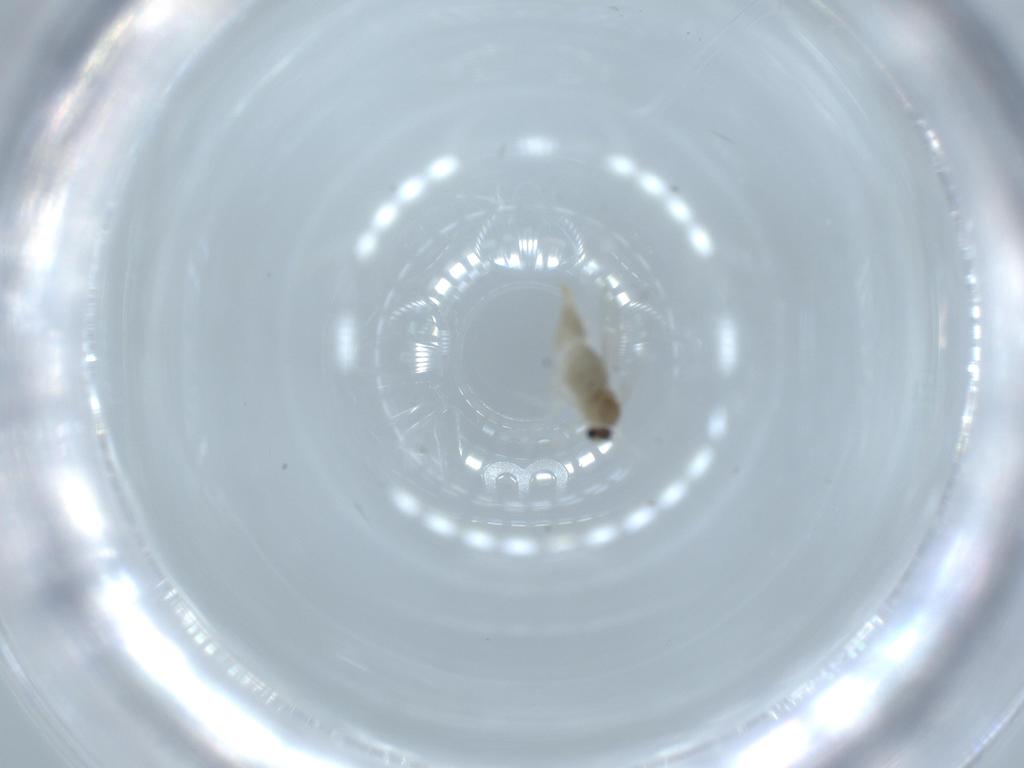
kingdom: Animalia
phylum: Arthropoda
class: Insecta
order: Diptera
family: Cecidomyiidae
